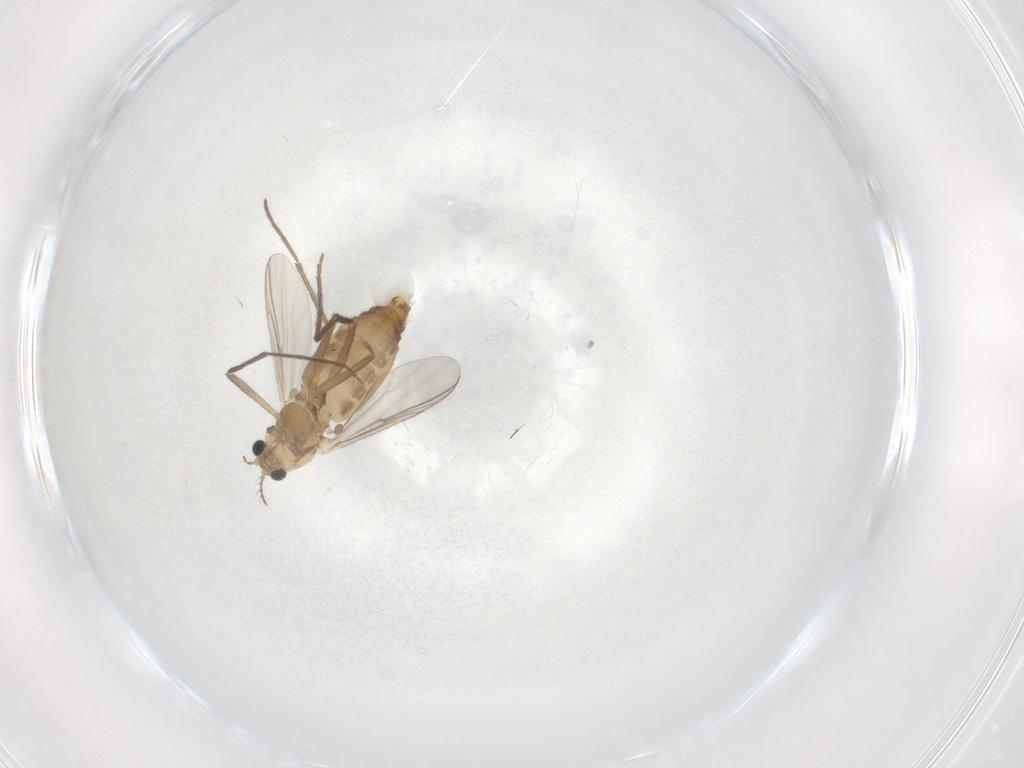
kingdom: Animalia
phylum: Arthropoda
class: Insecta
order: Diptera
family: Chironomidae
